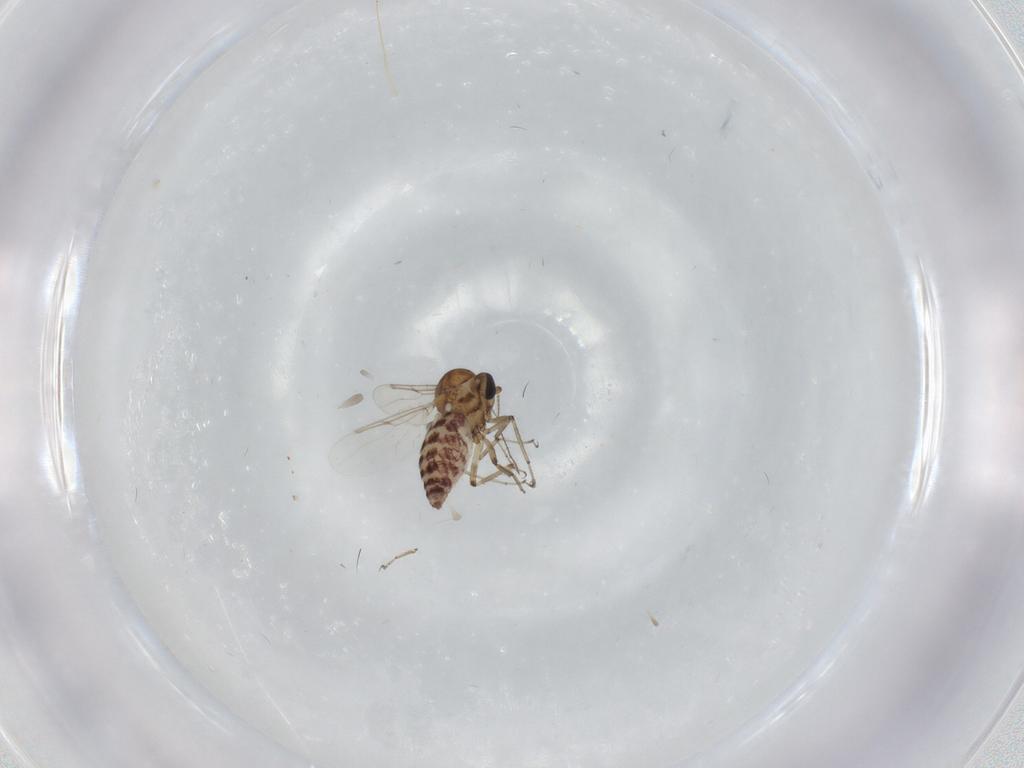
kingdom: Animalia
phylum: Arthropoda
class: Insecta
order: Diptera
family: Ceratopogonidae
